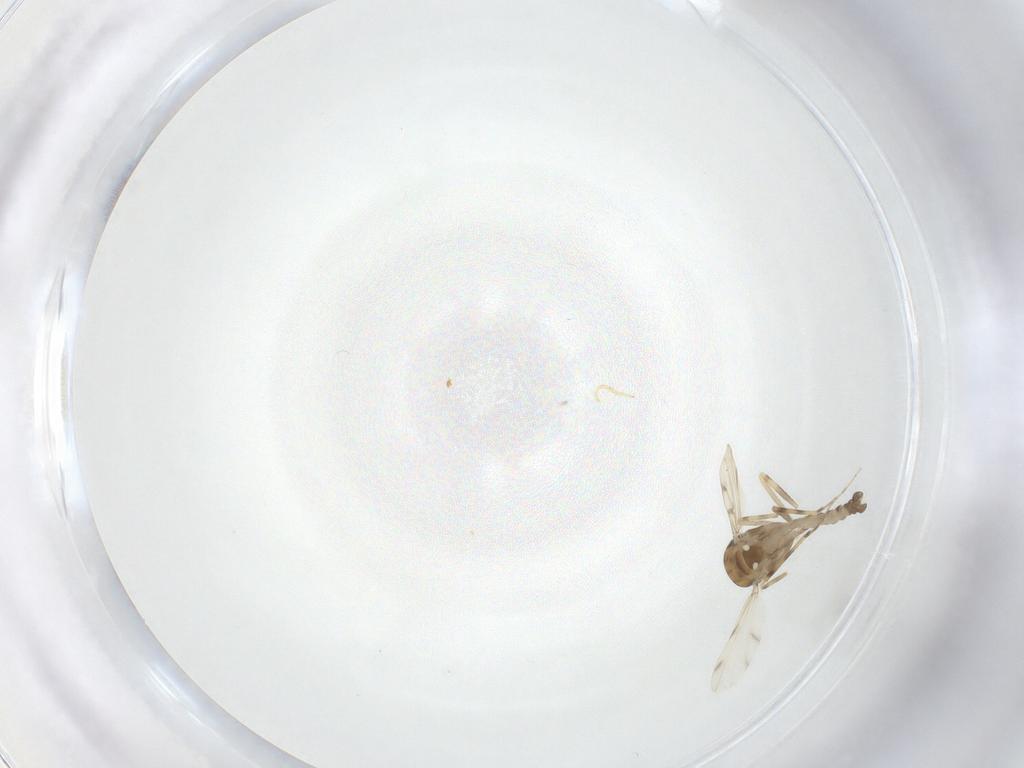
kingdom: Animalia
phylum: Arthropoda
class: Insecta
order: Diptera
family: Ceratopogonidae
